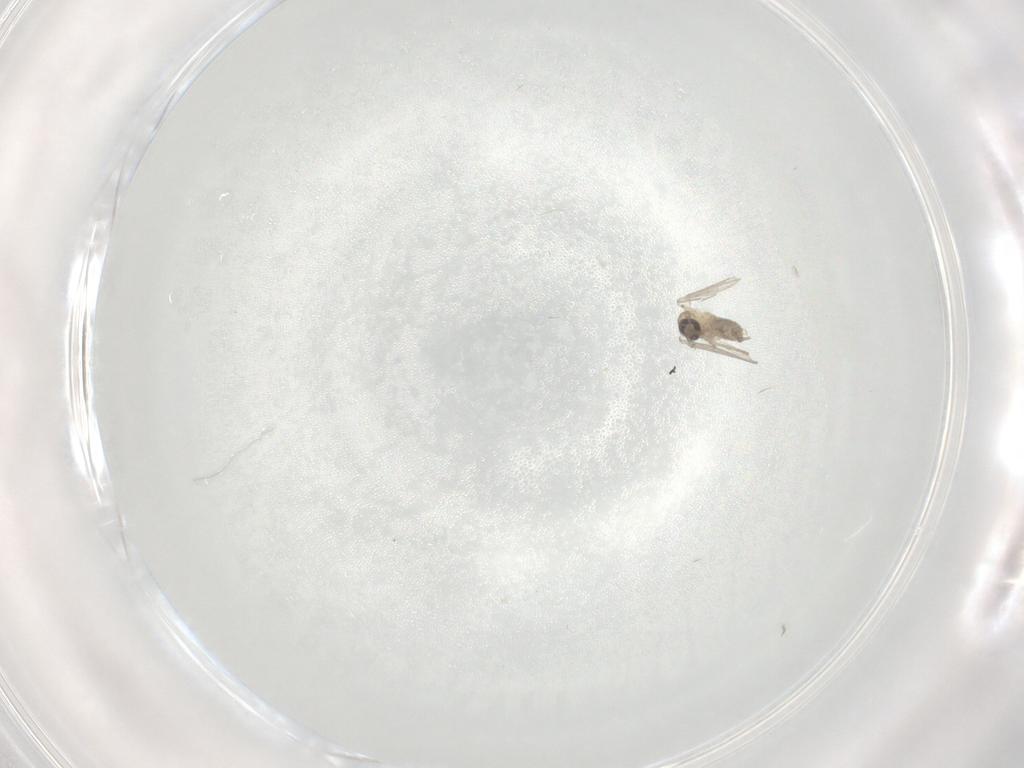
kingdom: Animalia
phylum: Arthropoda
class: Insecta
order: Diptera
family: Psychodidae
